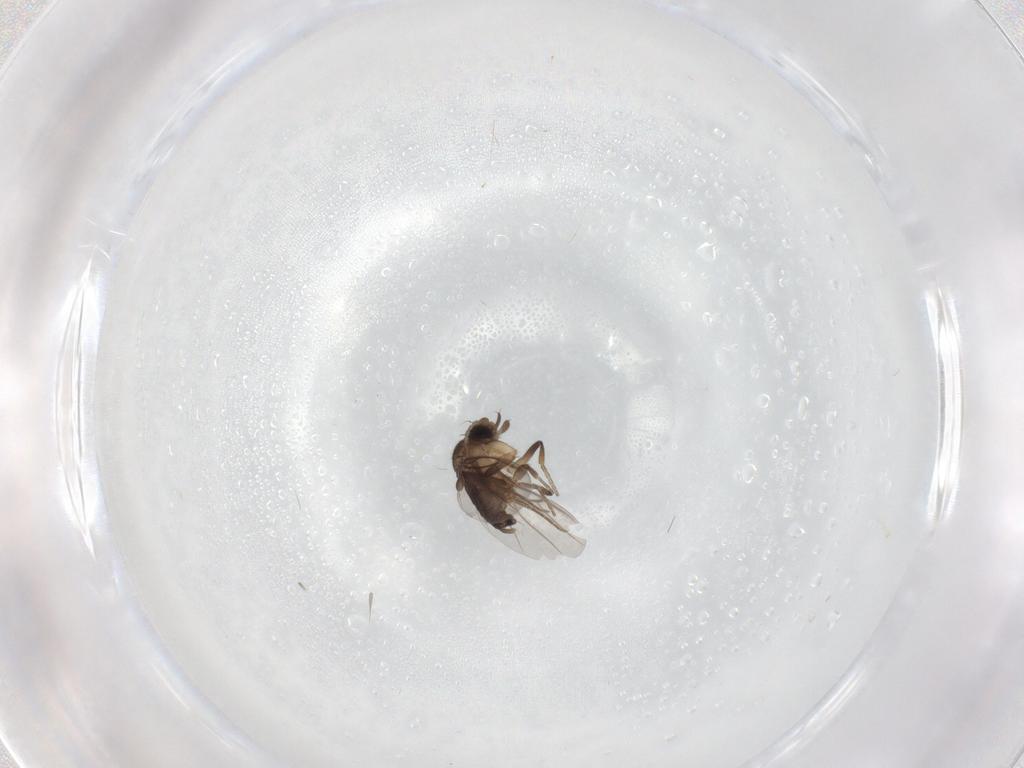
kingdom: Animalia
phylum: Arthropoda
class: Insecta
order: Diptera
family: Phoridae
